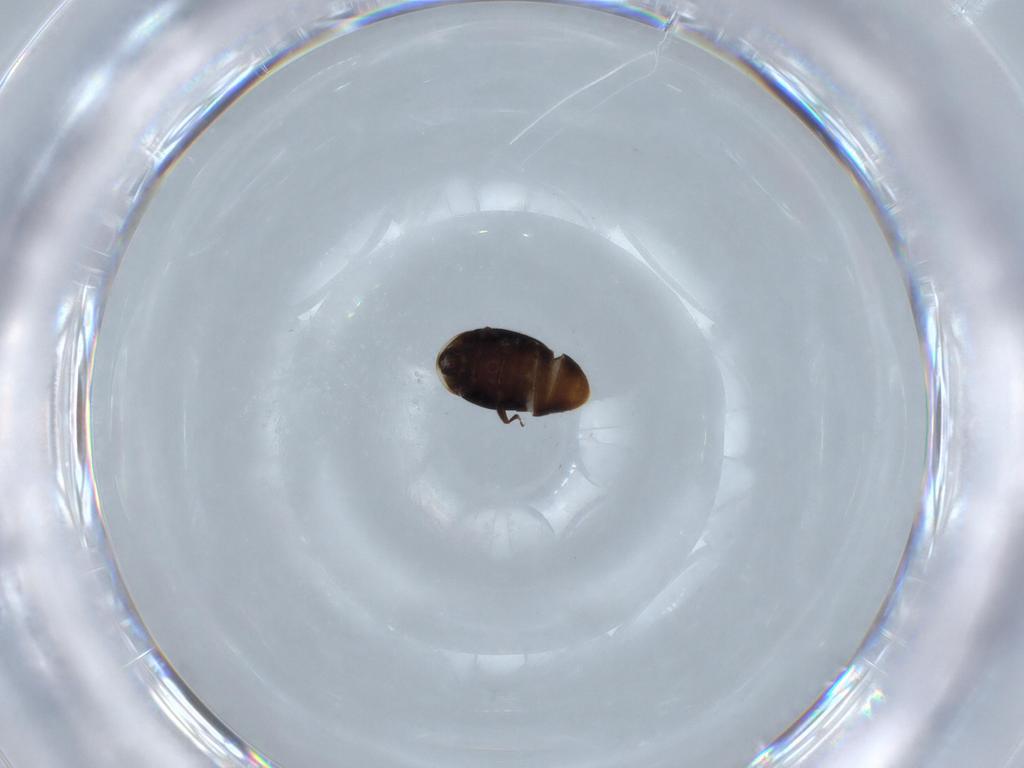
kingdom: Animalia
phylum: Arthropoda
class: Insecta
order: Coleoptera
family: Corylophidae
